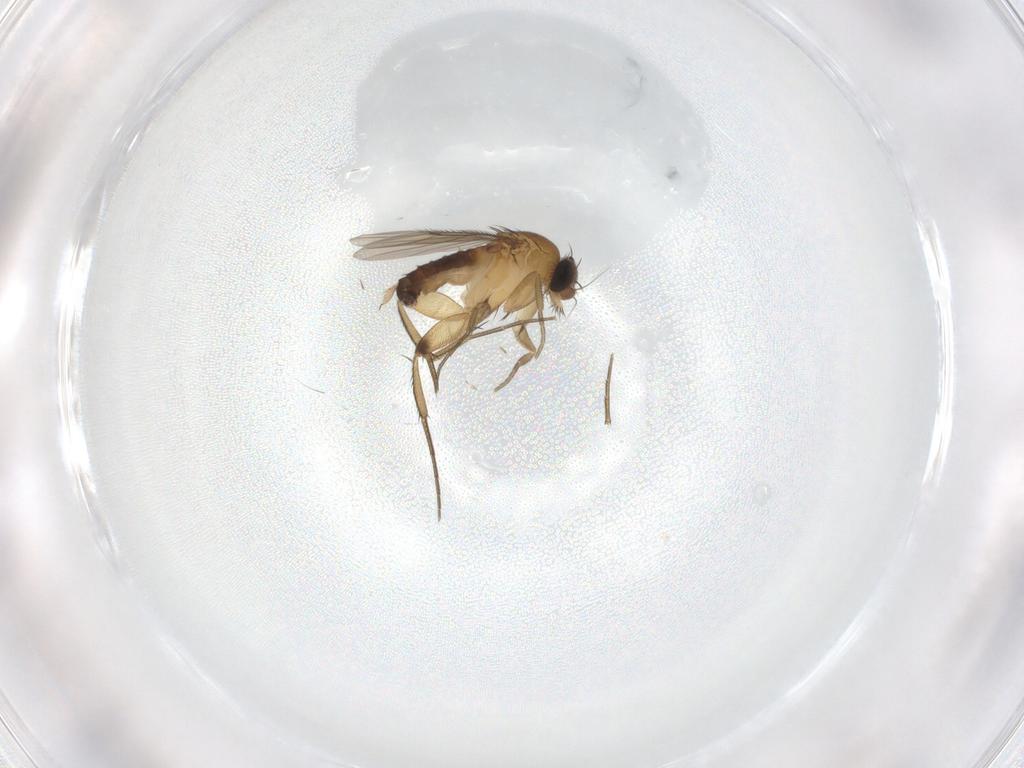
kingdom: Animalia
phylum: Arthropoda
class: Insecta
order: Diptera
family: Phoridae
